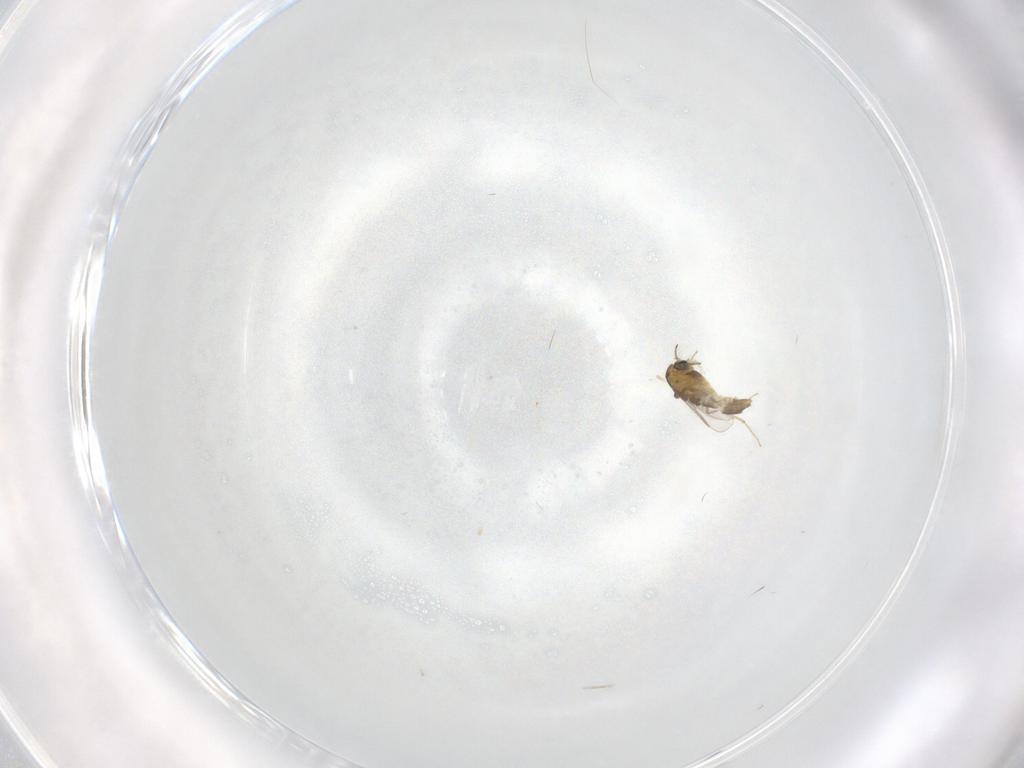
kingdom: Animalia
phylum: Arthropoda
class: Insecta
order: Diptera
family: Chironomidae
